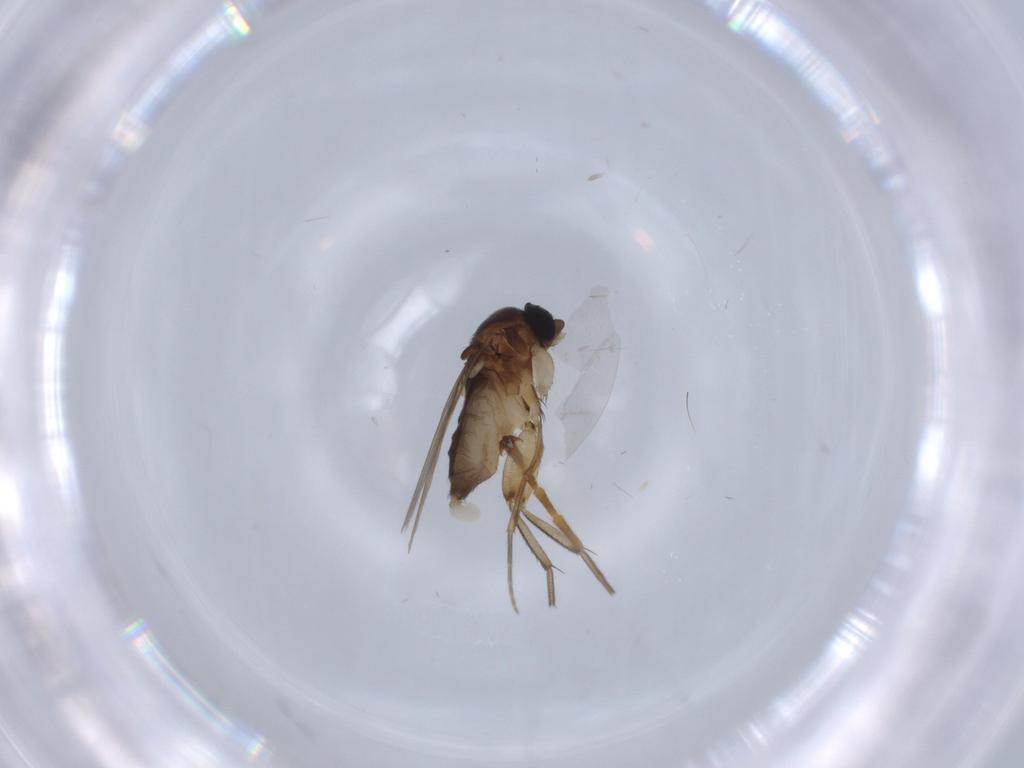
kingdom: Animalia
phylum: Arthropoda
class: Insecta
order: Diptera
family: Phoridae
